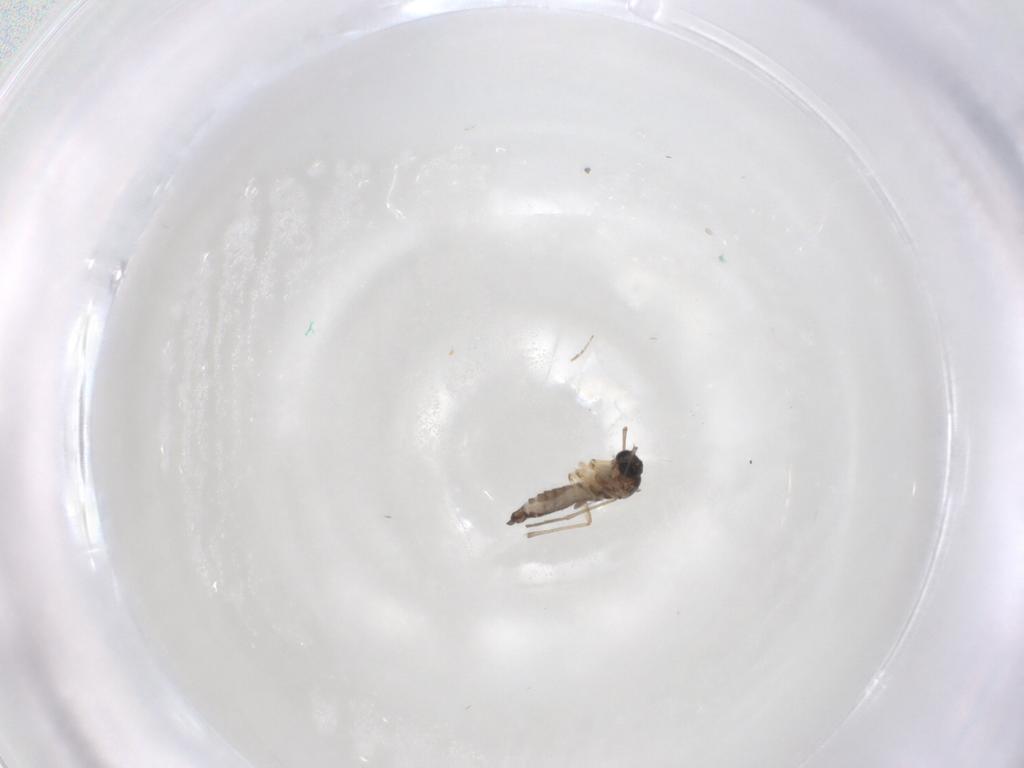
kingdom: Animalia
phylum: Arthropoda
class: Insecta
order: Diptera
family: Sciaridae
